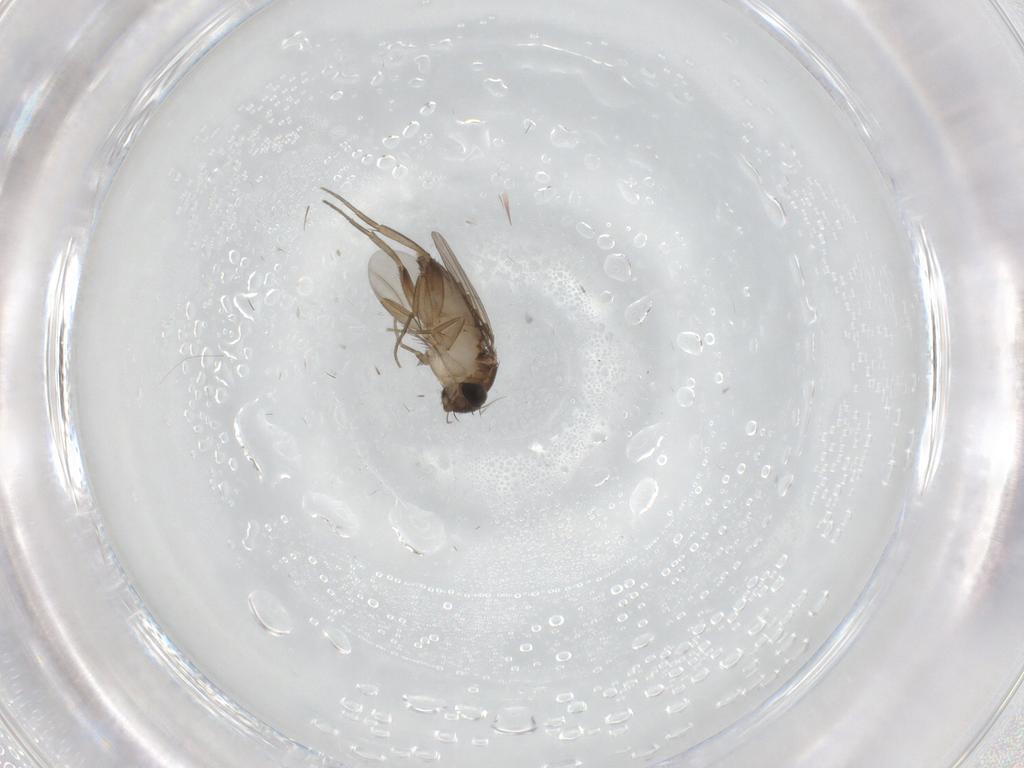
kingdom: Animalia
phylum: Arthropoda
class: Insecta
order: Diptera
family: Phoridae
